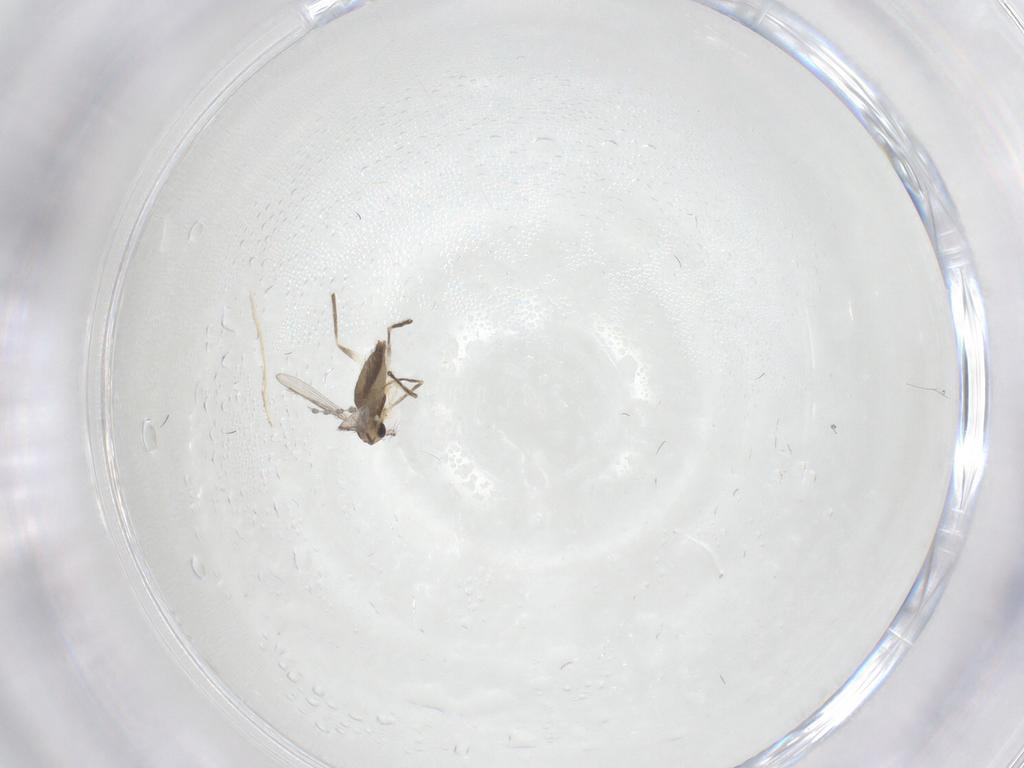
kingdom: Animalia
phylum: Arthropoda
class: Insecta
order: Diptera
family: Cecidomyiidae
